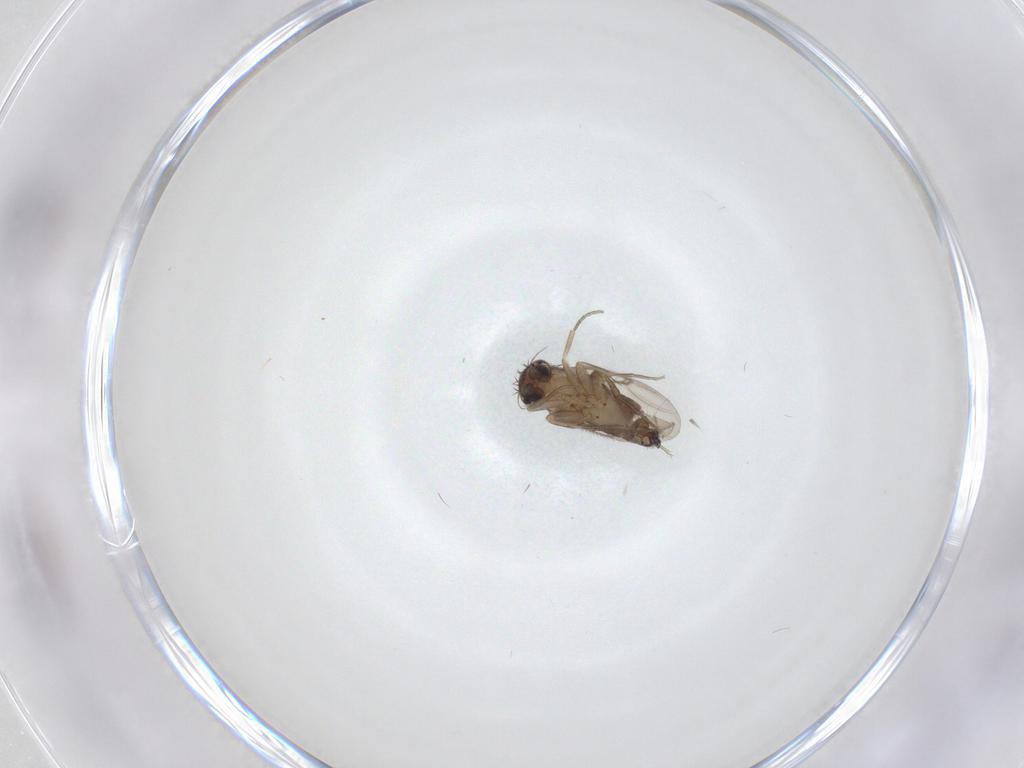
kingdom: Animalia
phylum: Arthropoda
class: Insecta
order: Diptera
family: Phoridae
